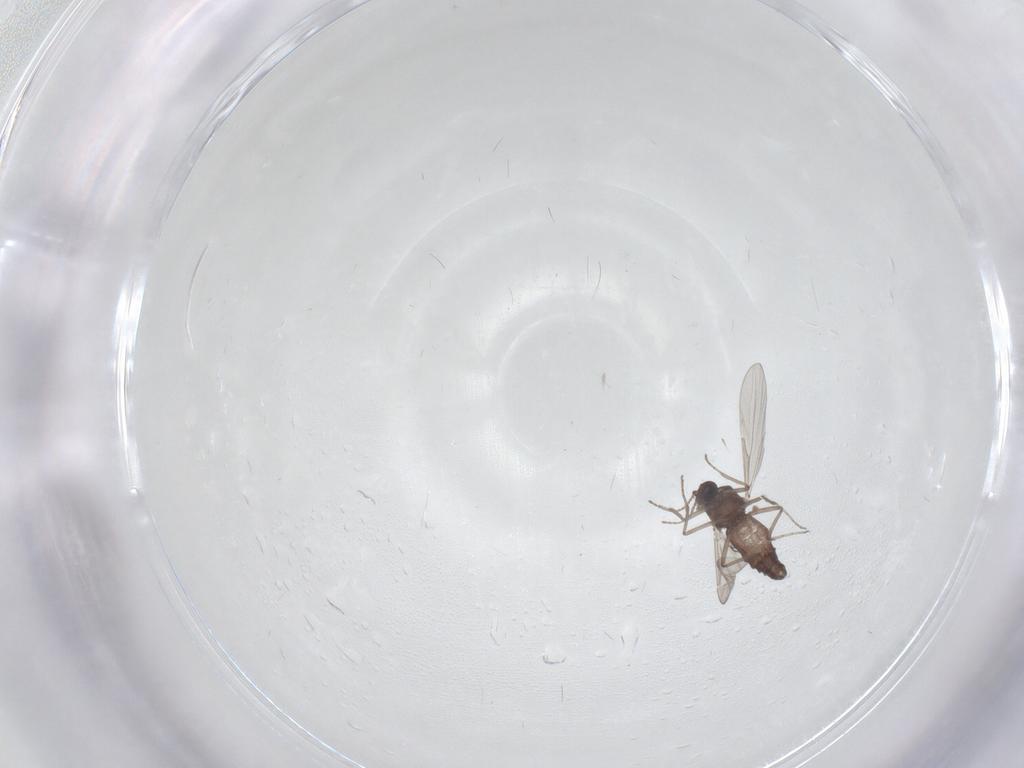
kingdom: Animalia
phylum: Arthropoda
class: Insecta
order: Diptera
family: Ceratopogonidae
